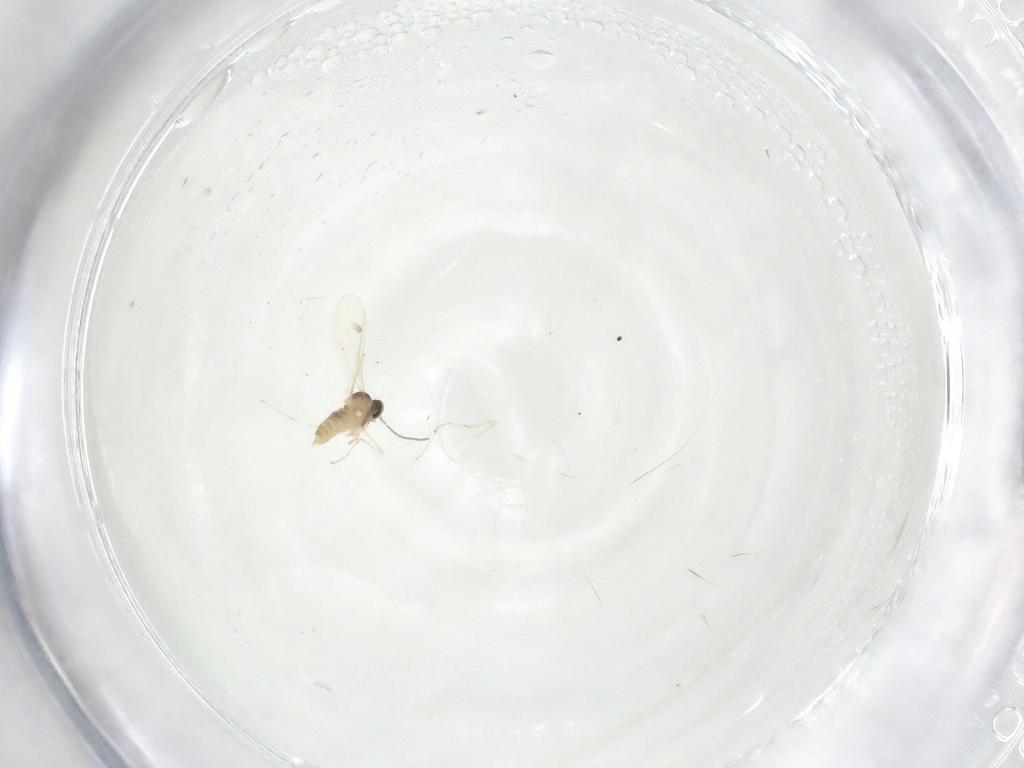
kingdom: Animalia
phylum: Arthropoda
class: Insecta
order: Diptera
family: Cecidomyiidae
